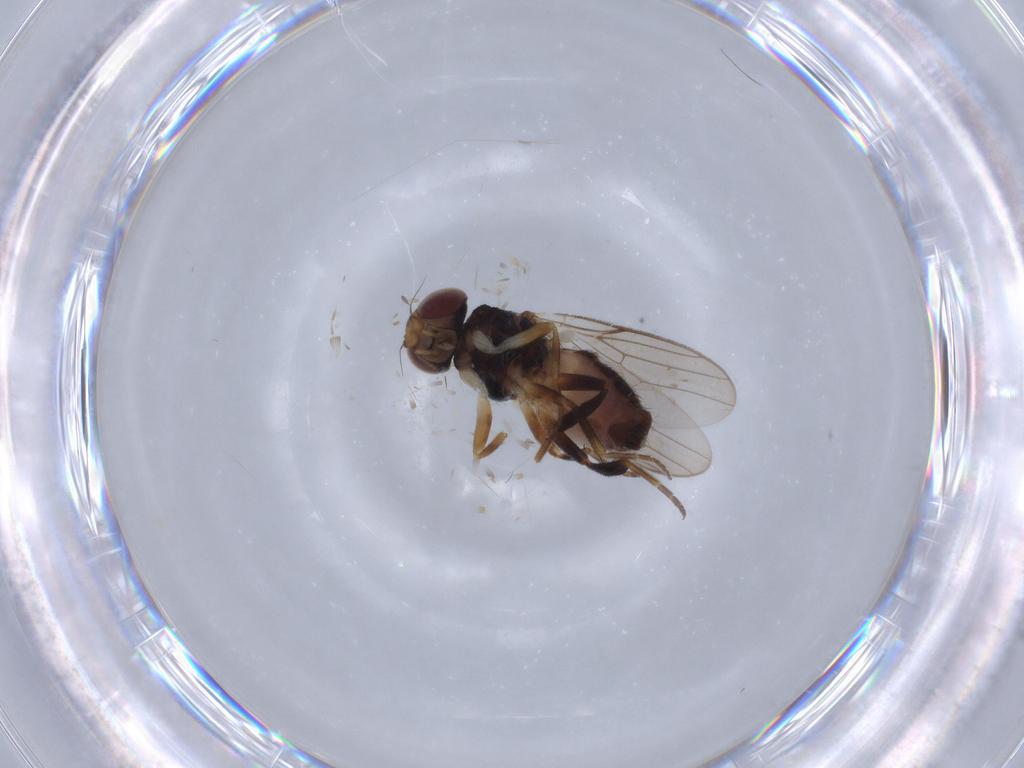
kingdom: Animalia
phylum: Arthropoda
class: Insecta
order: Diptera
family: Chloropidae
